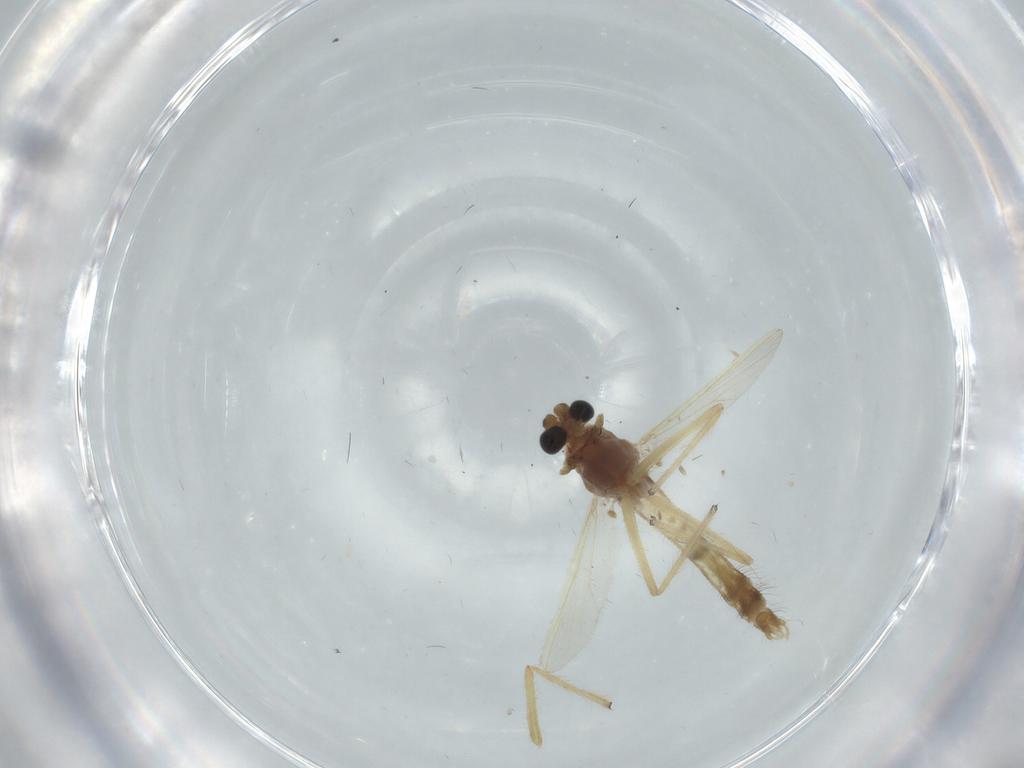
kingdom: Animalia
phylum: Arthropoda
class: Insecta
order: Diptera
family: Chironomidae
